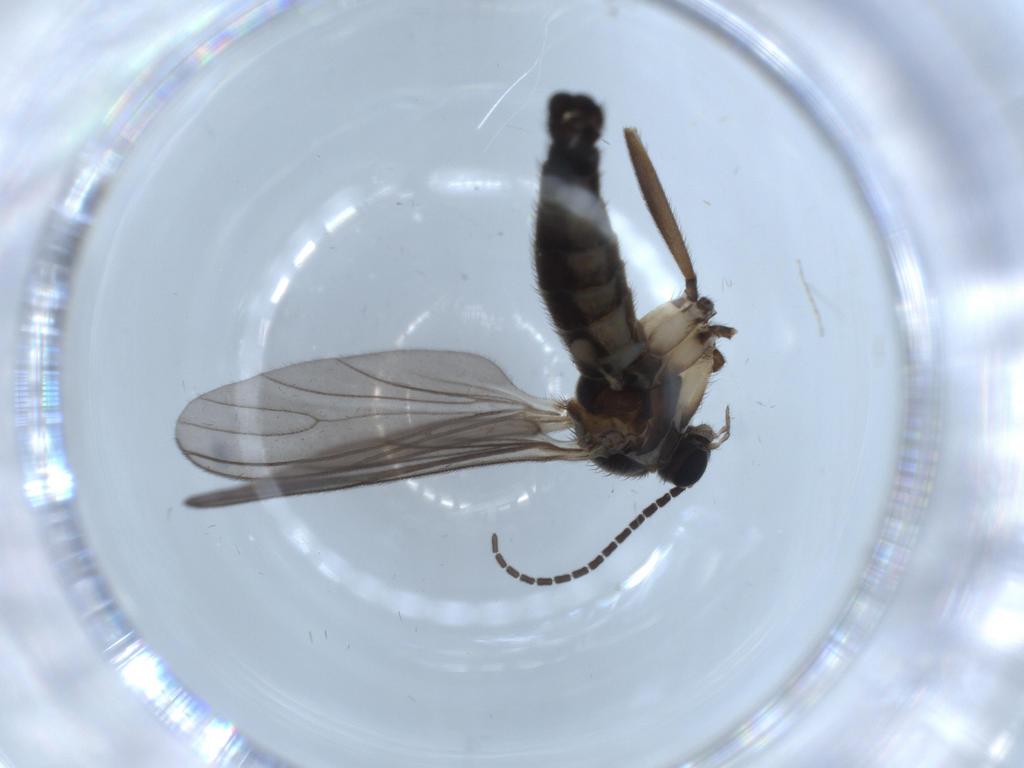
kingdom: Animalia
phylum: Arthropoda
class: Insecta
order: Diptera
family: Sciaridae
